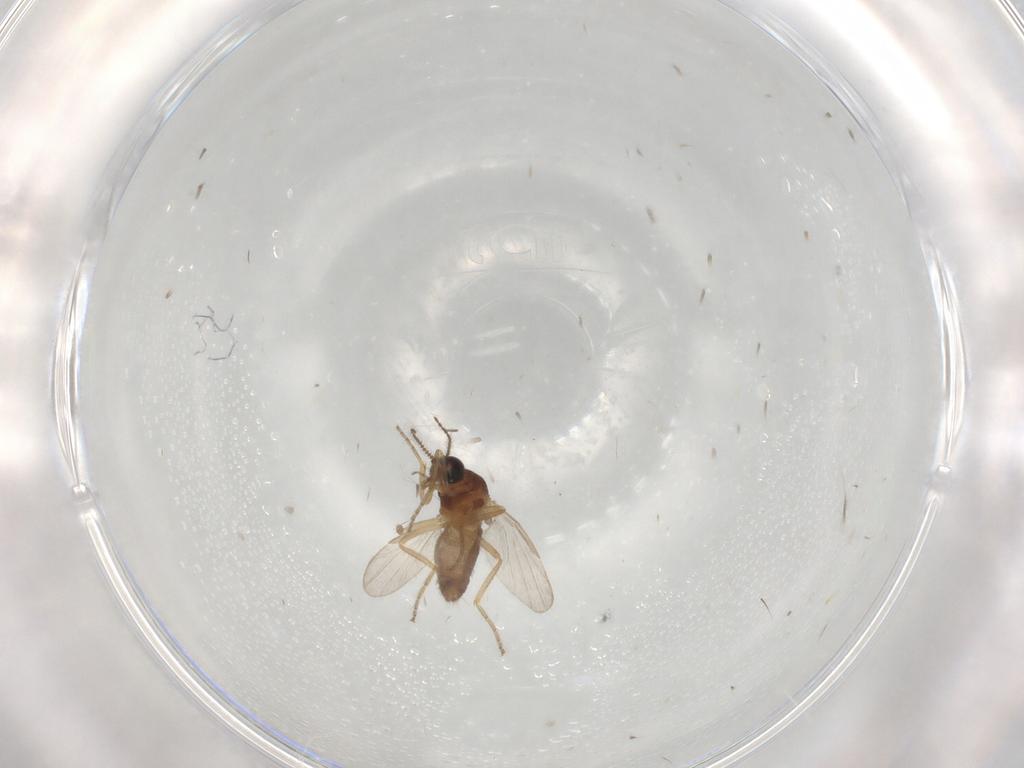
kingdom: Animalia
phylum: Arthropoda
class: Insecta
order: Diptera
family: Ceratopogonidae
